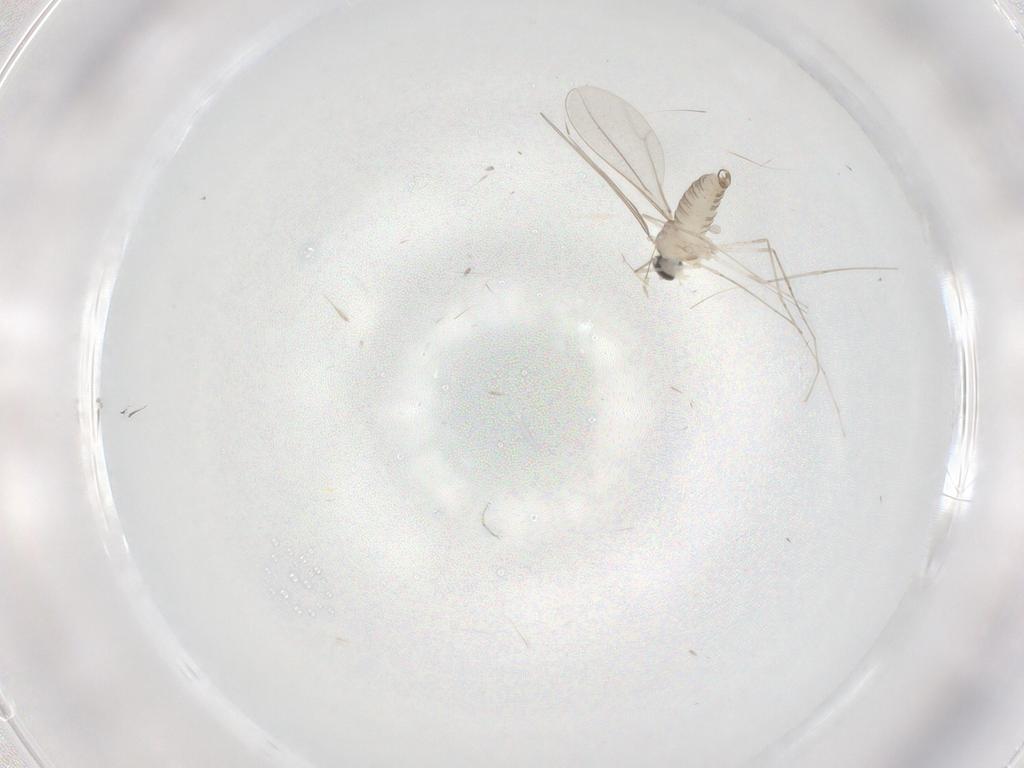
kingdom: Animalia
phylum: Arthropoda
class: Insecta
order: Diptera
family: Cecidomyiidae
